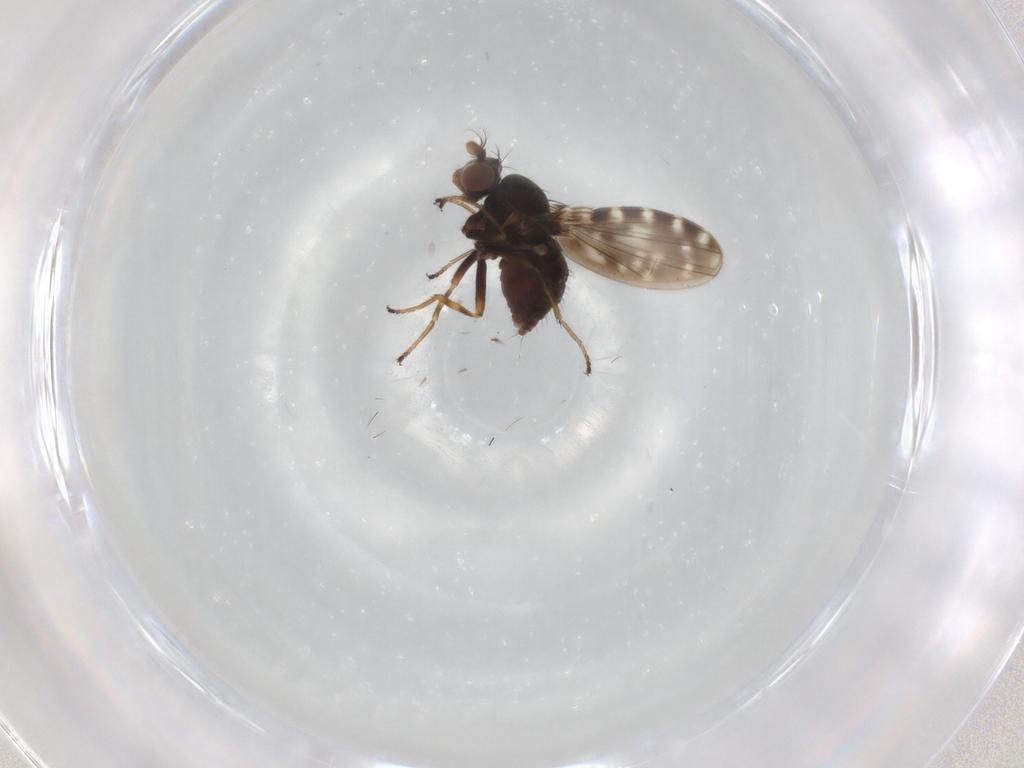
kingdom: Animalia
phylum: Arthropoda
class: Insecta
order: Diptera
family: Ephydridae
